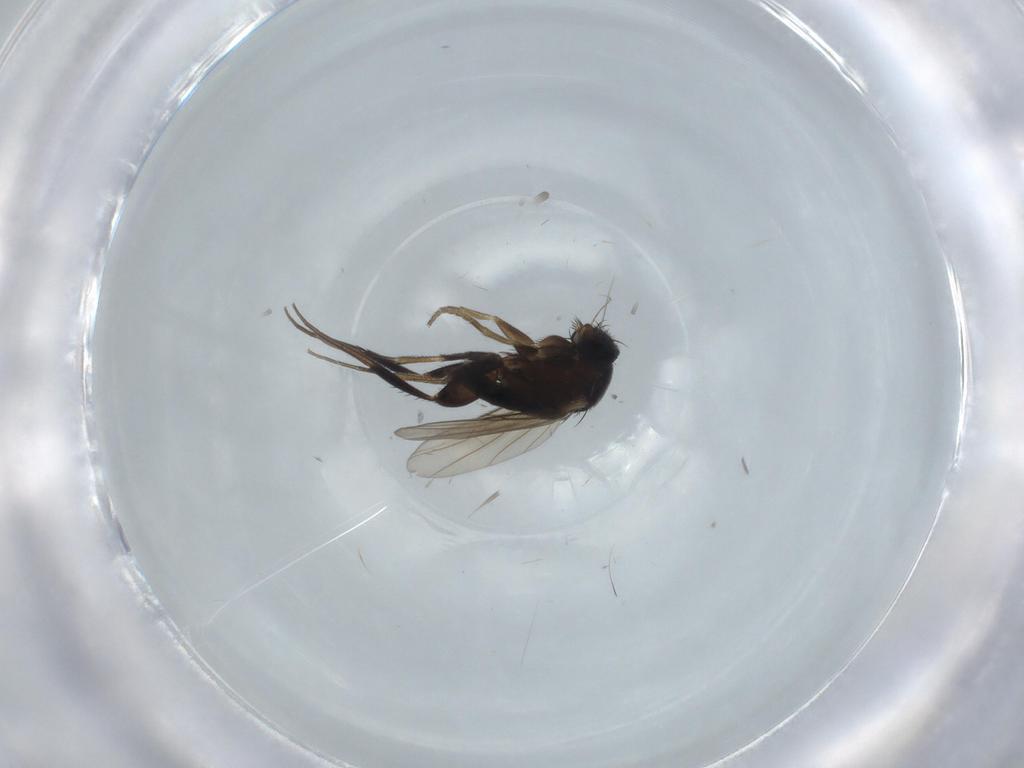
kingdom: Animalia
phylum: Arthropoda
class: Insecta
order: Diptera
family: Phoridae
